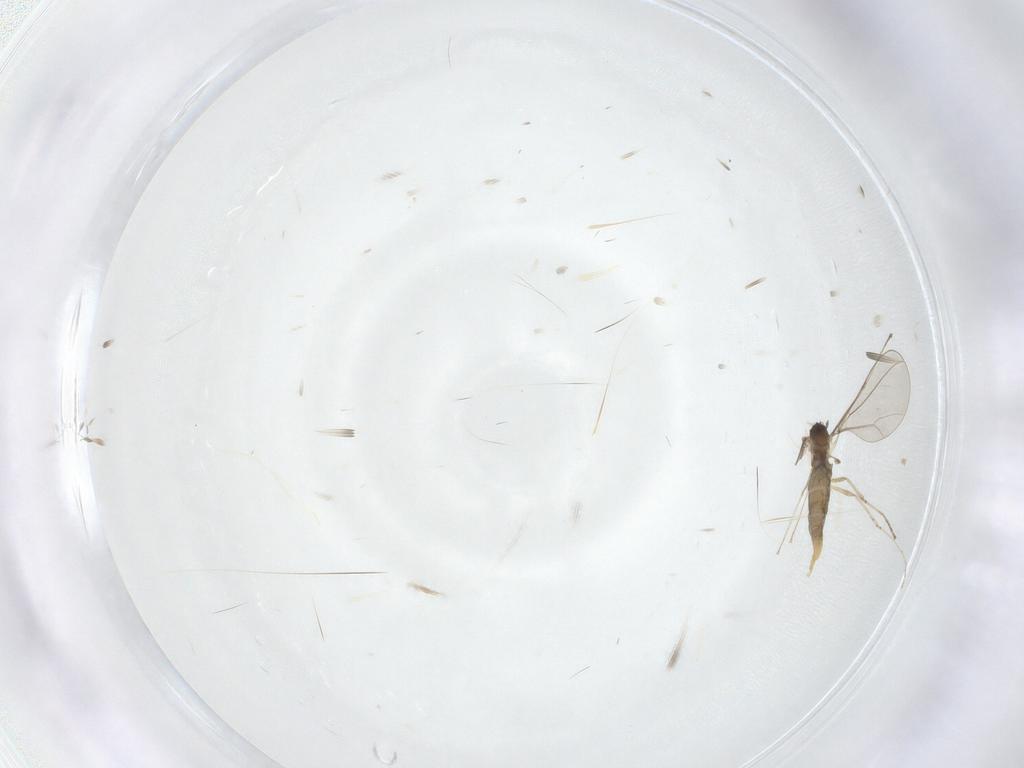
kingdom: Animalia
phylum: Arthropoda
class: Insecta
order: Diptera
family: Cecidomyiidae
